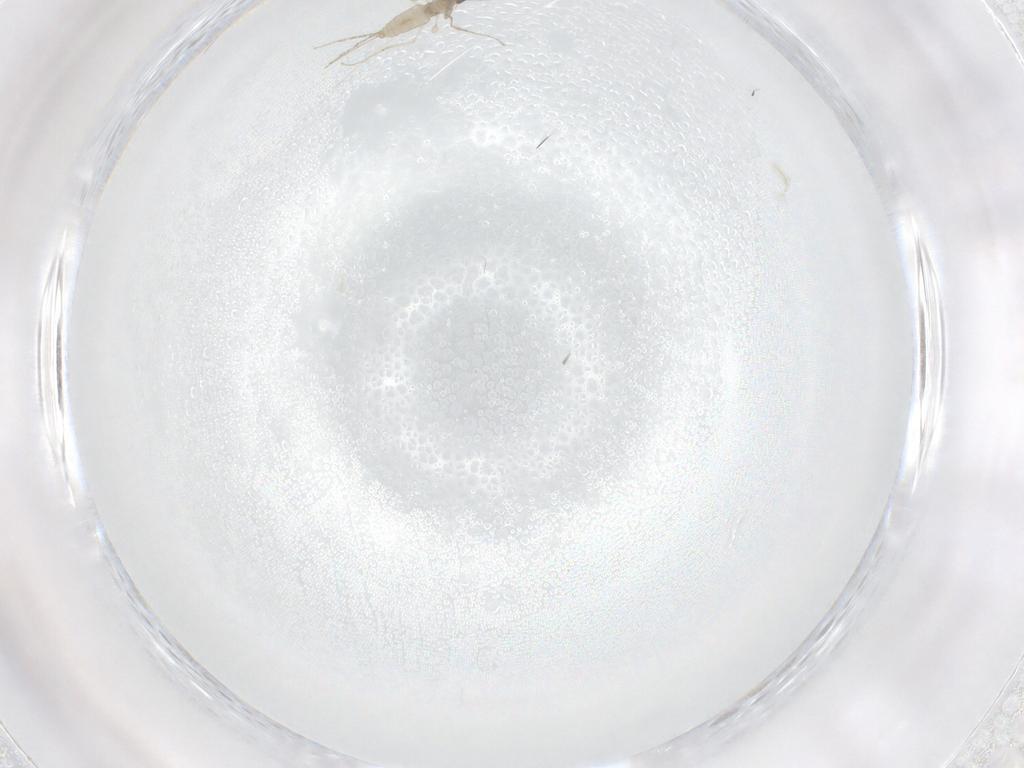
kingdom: Animalia
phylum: Arthropoda
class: Insecta
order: Diptera
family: Cecidomyiidae
